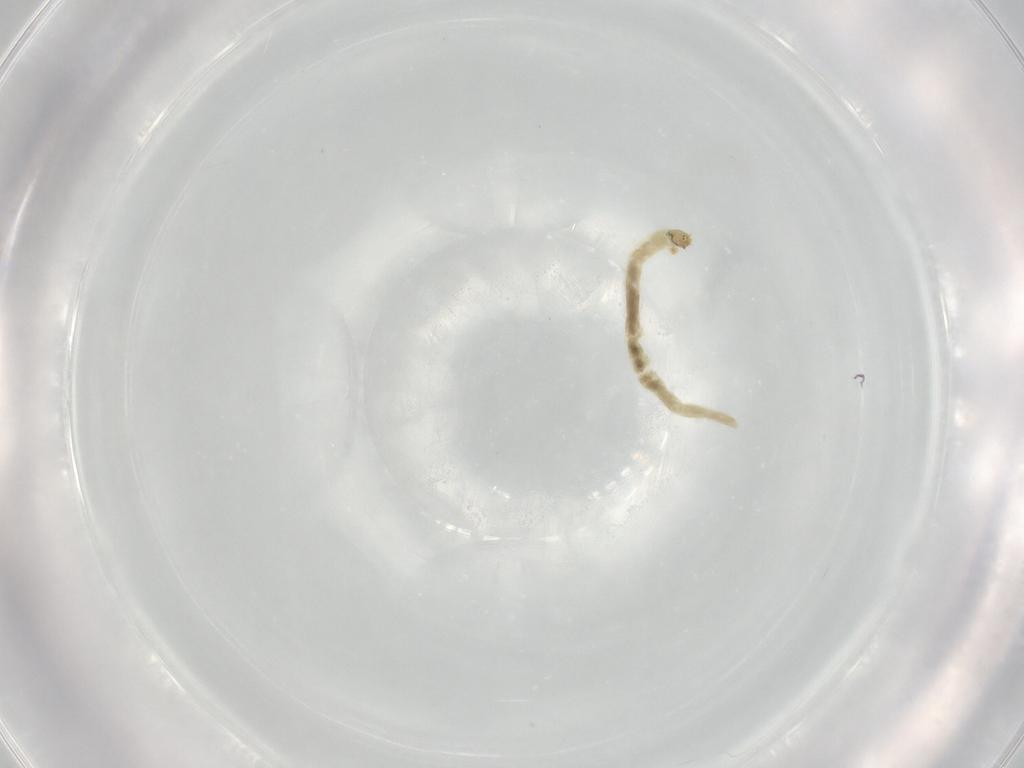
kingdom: Animalia
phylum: Arthropoda
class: Insecta
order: Diptera
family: Chironomidae
